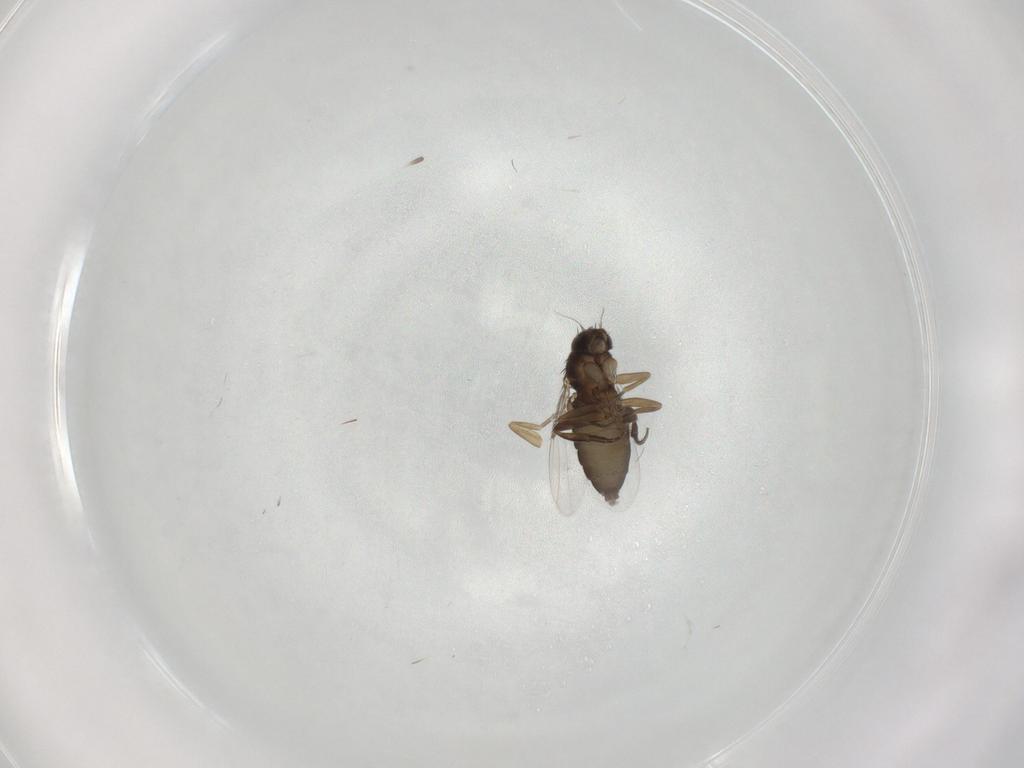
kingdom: Animalia
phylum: Arthropoda
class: Insecta
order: Diptera
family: Phoridae
